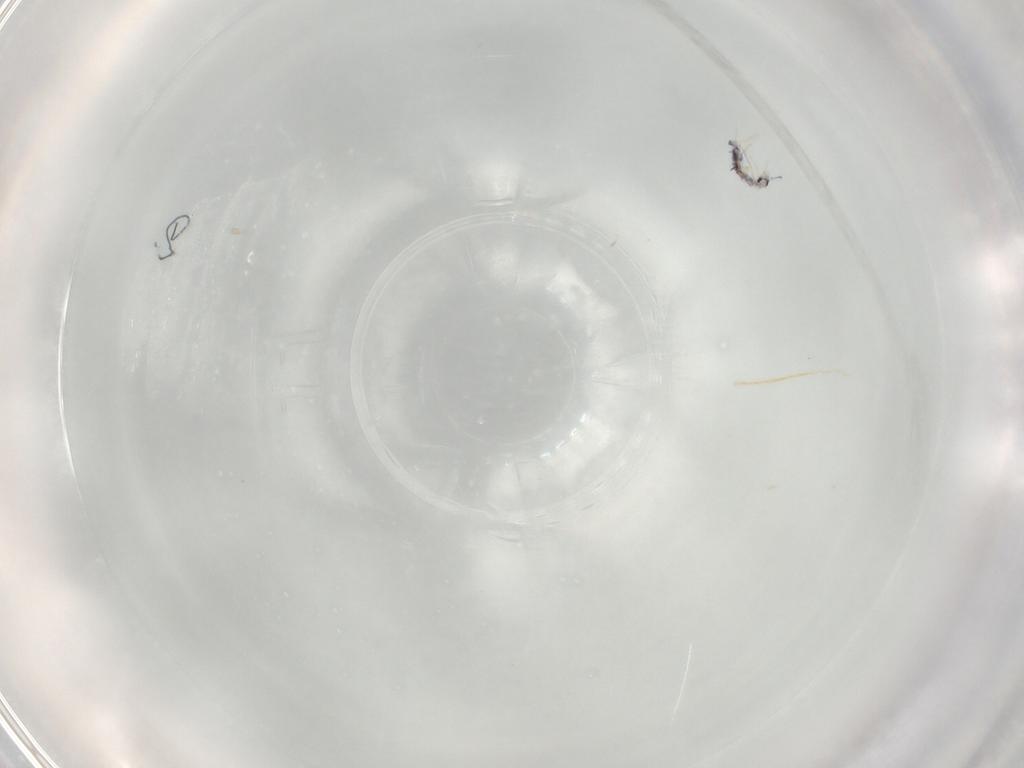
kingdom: Animalia
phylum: Arthropoda
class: Collembola
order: Entomobryomorpha
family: Entomobryidae
